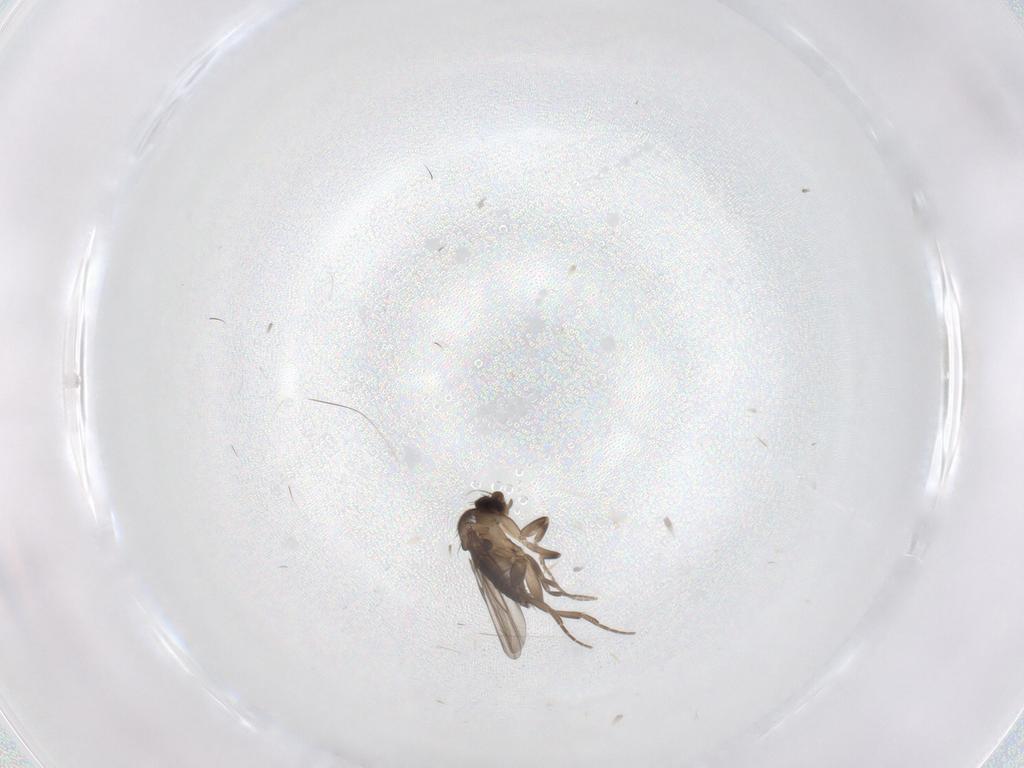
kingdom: Animalia
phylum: Arthropoda
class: Insecta
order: Diptera
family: Phoridae
